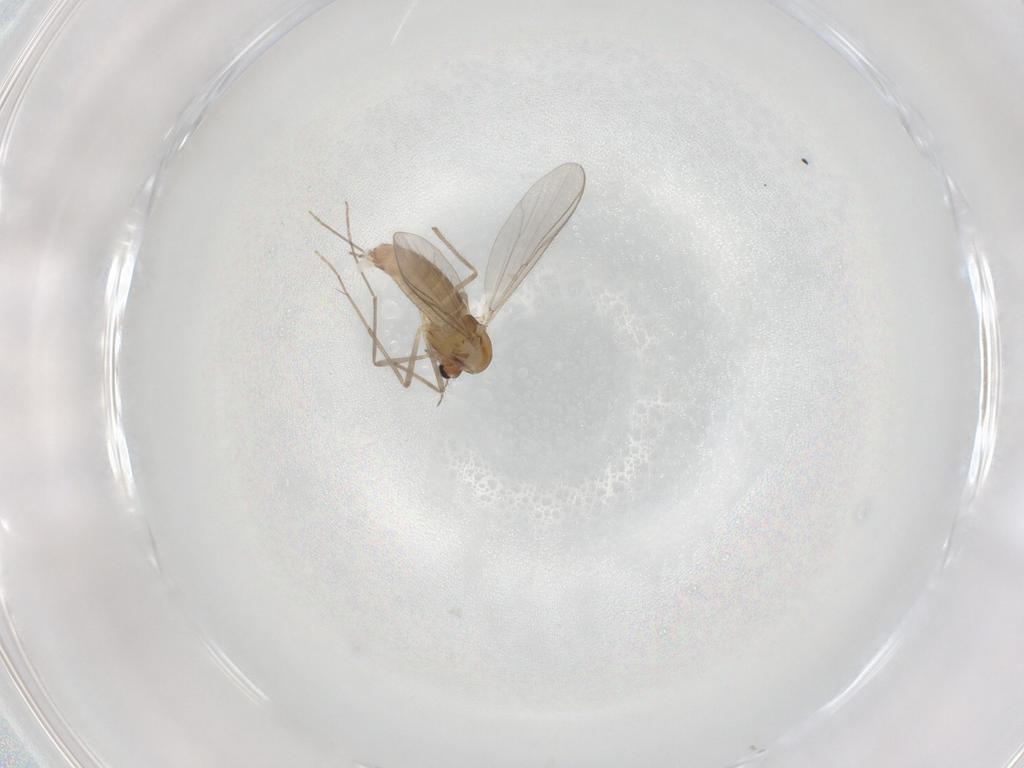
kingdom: Animalia
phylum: Arthropoda
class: Insecta
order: Diptera
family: Chironomidae
